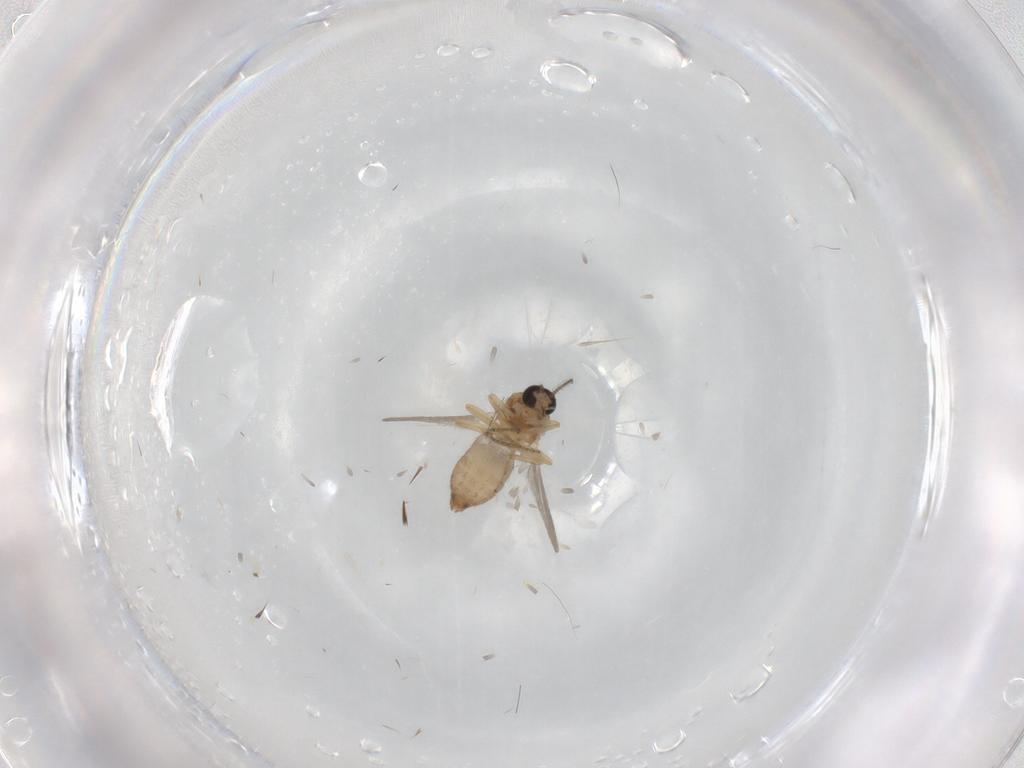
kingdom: Animalia
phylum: Arthropoda
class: Insecta
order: Diptera
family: Ceratopogonidae
